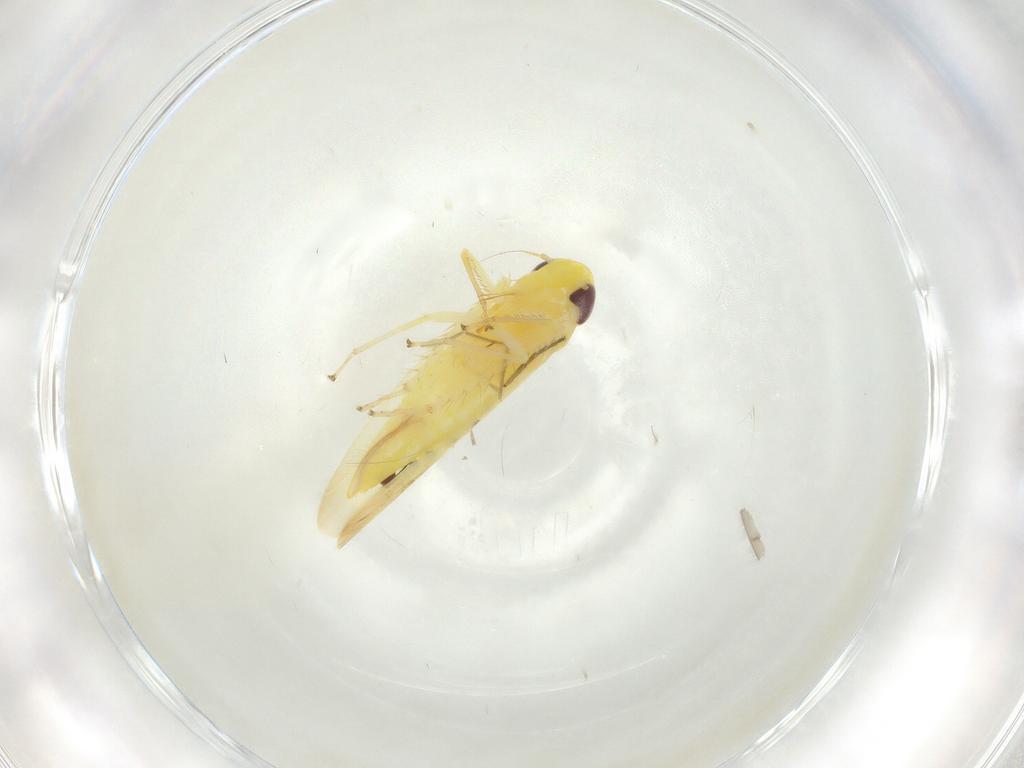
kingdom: Animalia
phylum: Arthropoda
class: Insecta
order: Hemiptera
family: Cicadellidae
